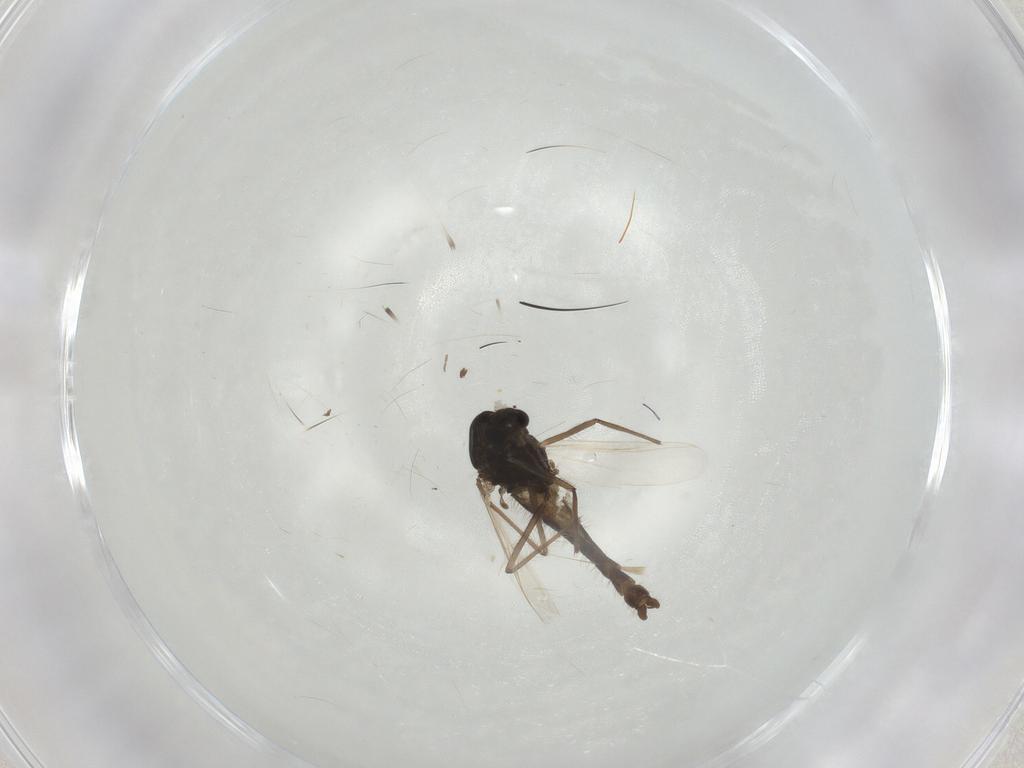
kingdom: Animalia
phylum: Arthropoda
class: Insecta
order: Diptera
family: Chironomidae
